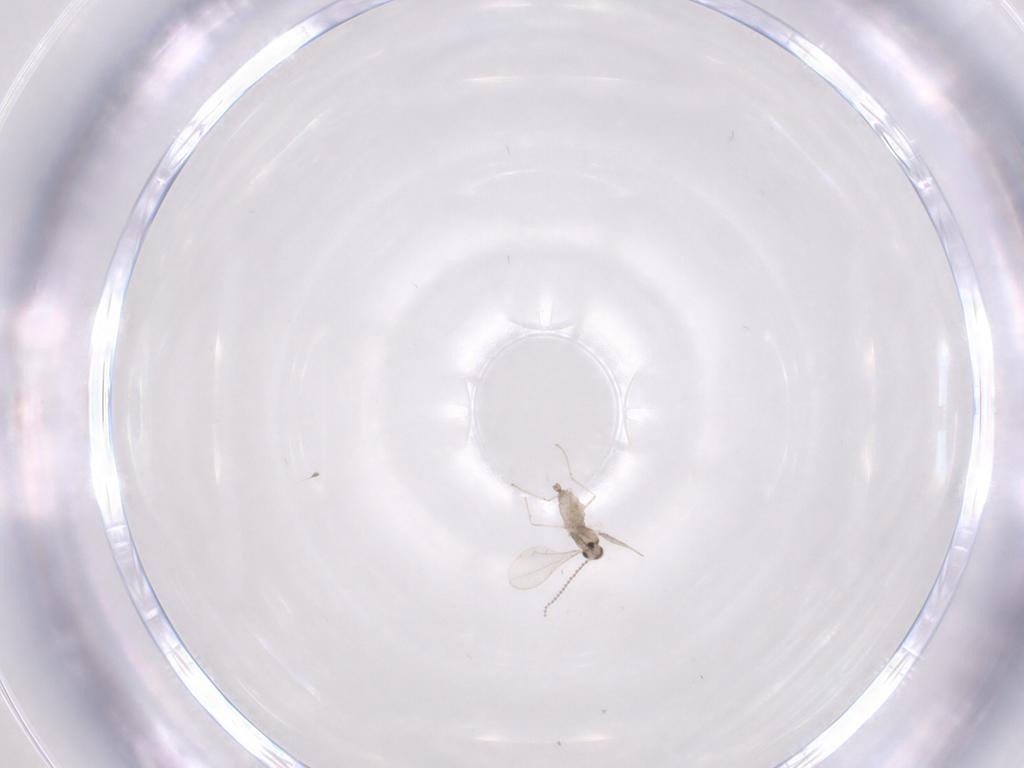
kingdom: Animalia
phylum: Arthropoda
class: Insecta
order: Diptera
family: Cecidomyiidae
